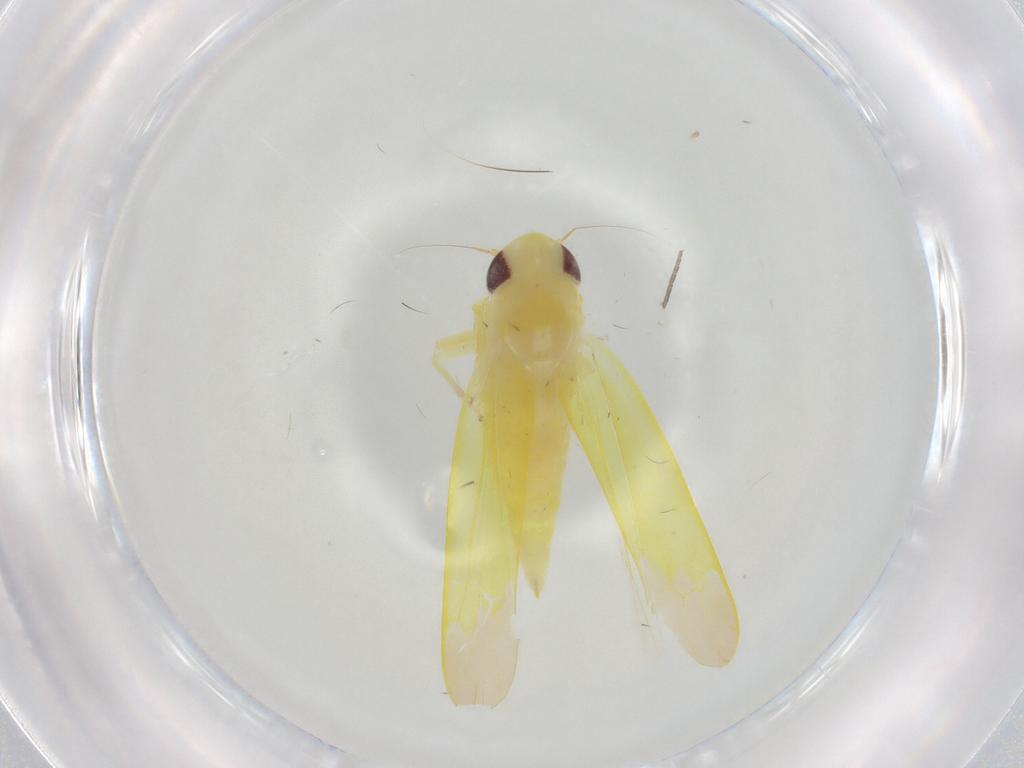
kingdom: Animalia
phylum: Arthropoda
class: Insecta
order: Hemiptera
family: Cicadellidae
